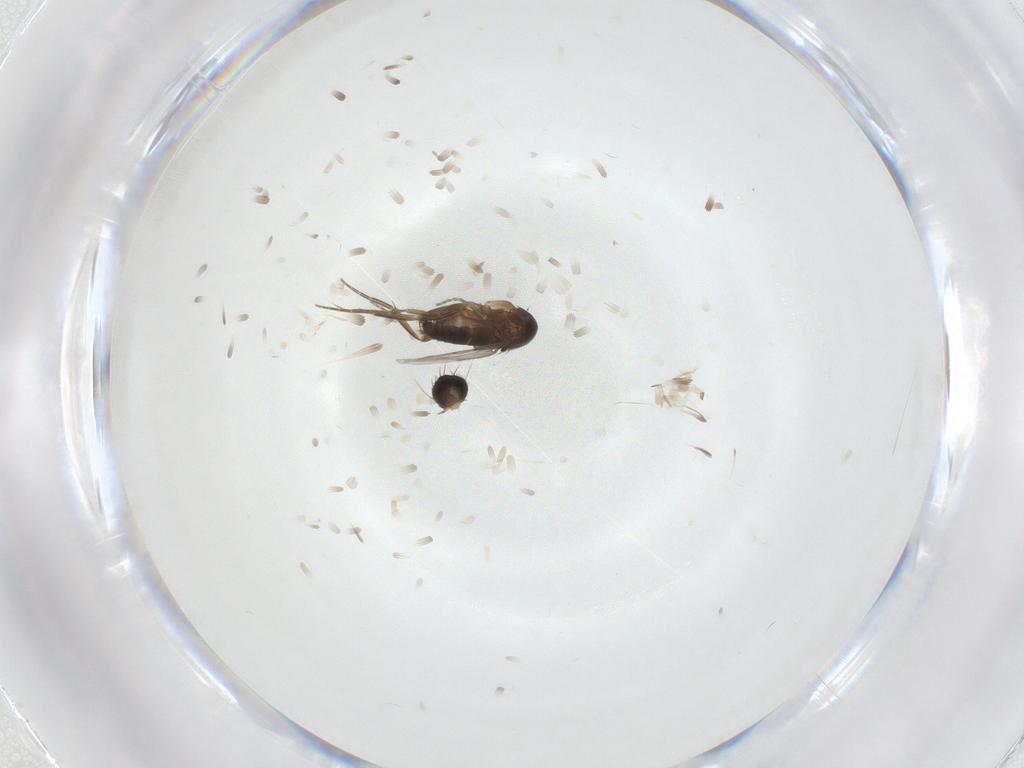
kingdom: Animalia
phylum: Arthropoda
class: Insecta
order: Diptera
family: Phoridae
